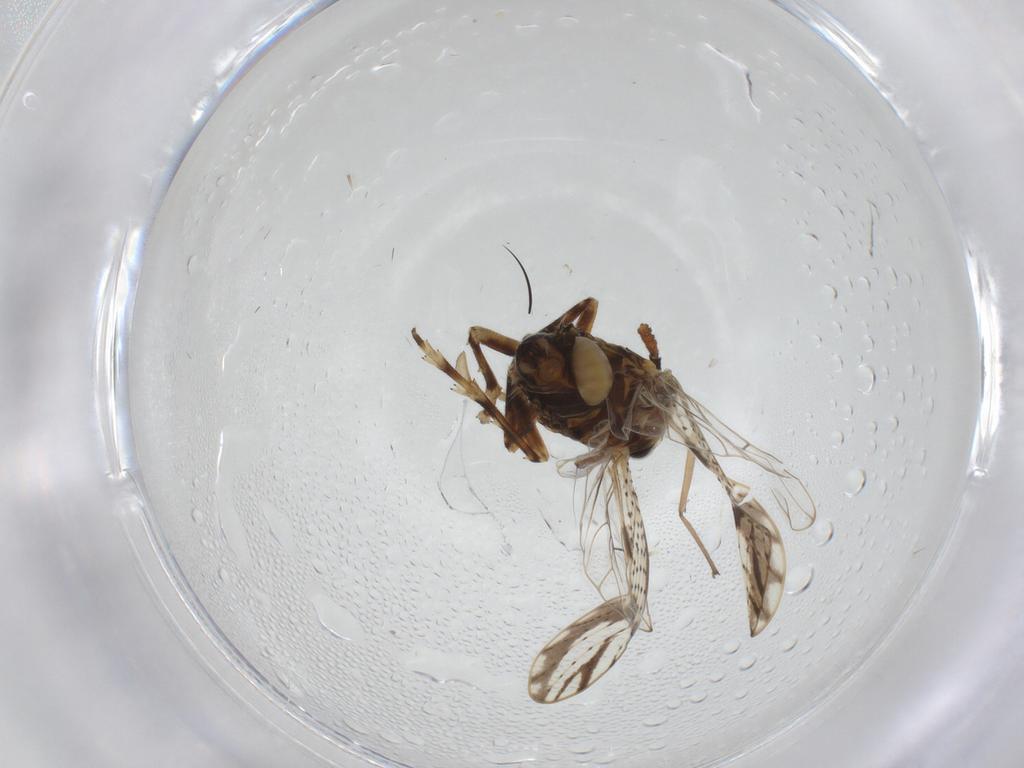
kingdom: Animalia
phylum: Arthropoda
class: Insecta
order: Hemiptera
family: Delphacidae
